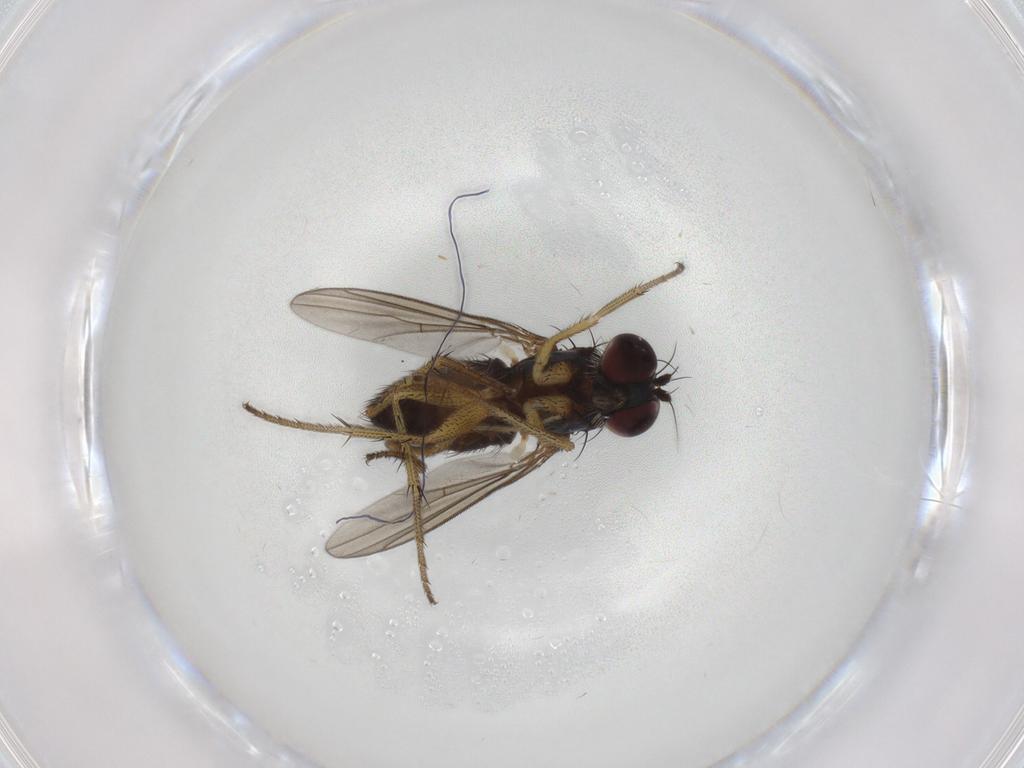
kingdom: Animalia
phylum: Arthropoda
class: Insecta
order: Diptera
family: Dolichopodidae
